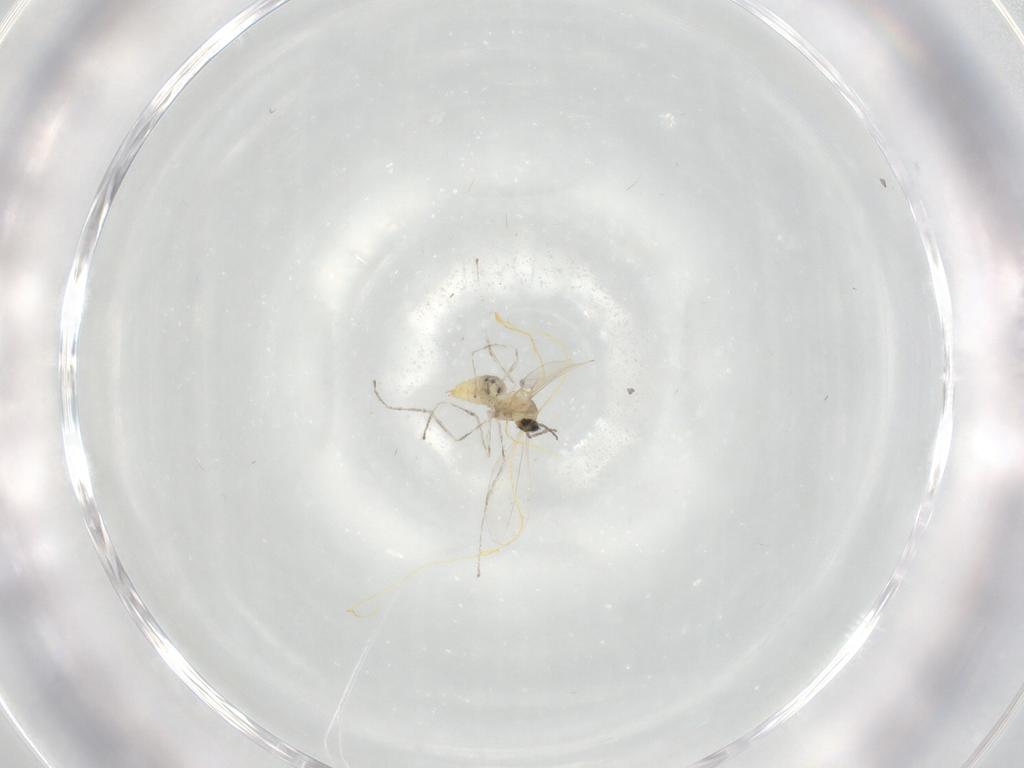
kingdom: Animalia
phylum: Arthropoda
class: Insecta
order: Diptera
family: Cecidomyiidae
